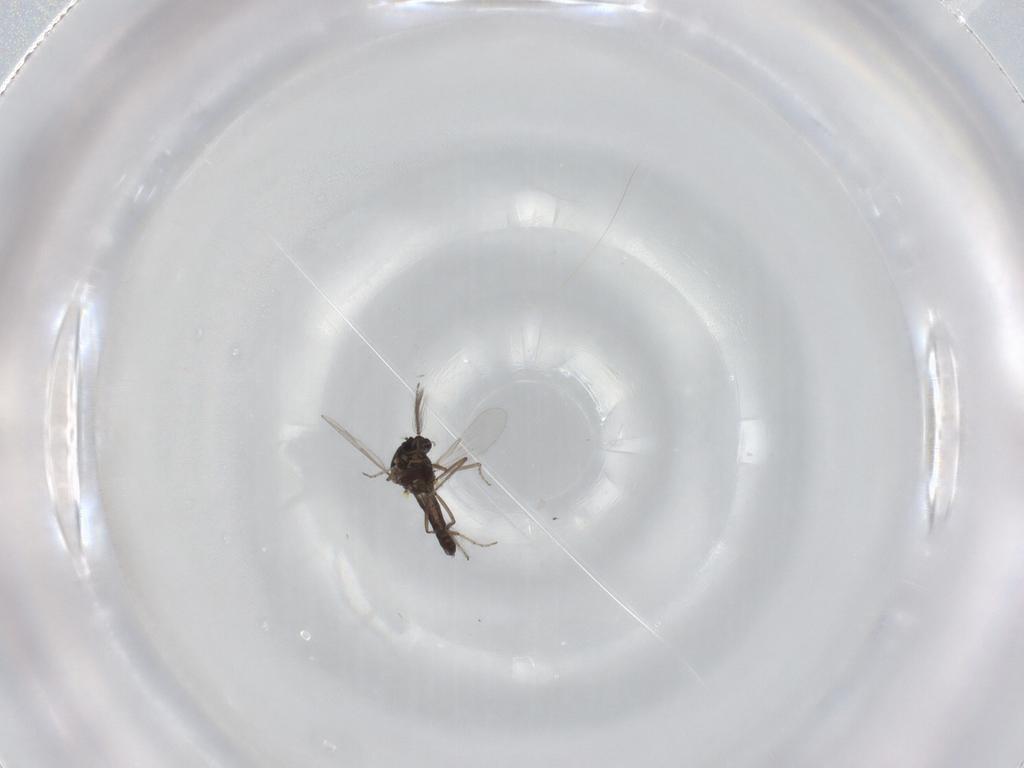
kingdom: Animalia
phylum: Arthropoda
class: Insecta
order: Diptera
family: Ceratopogonidae
